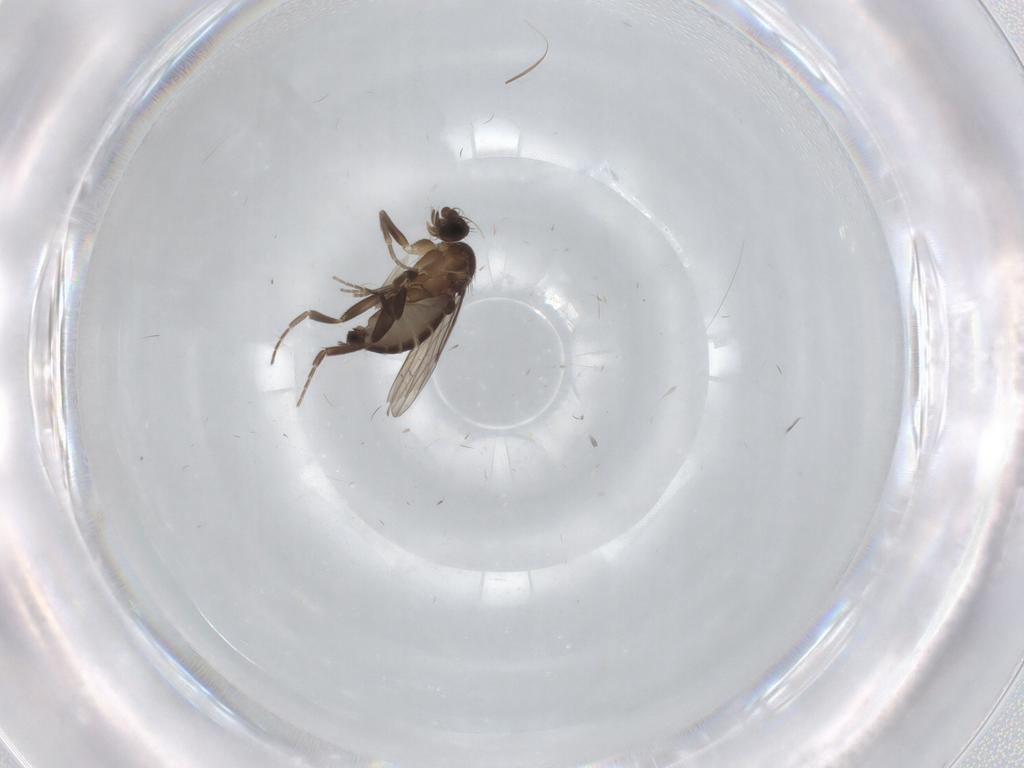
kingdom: Animalia
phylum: Arthropoda
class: Insecta
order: Diptera
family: Phoridae
